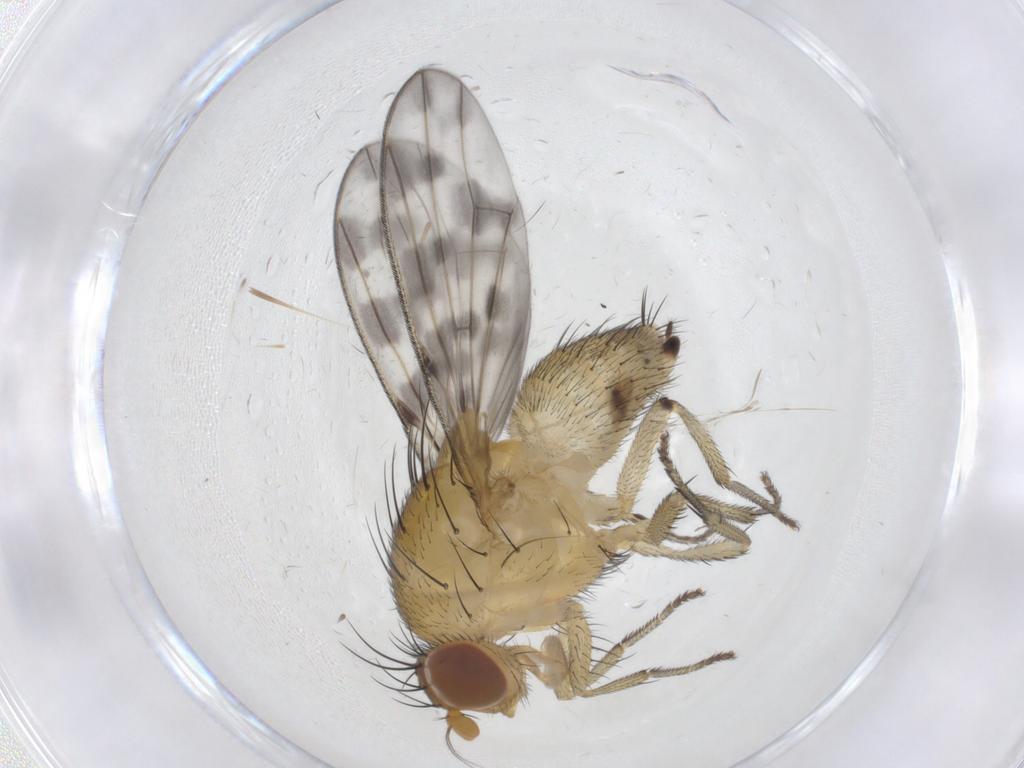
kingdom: Animalia
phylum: Arthropoda
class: Insecta
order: Diptera
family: Chironomidae
